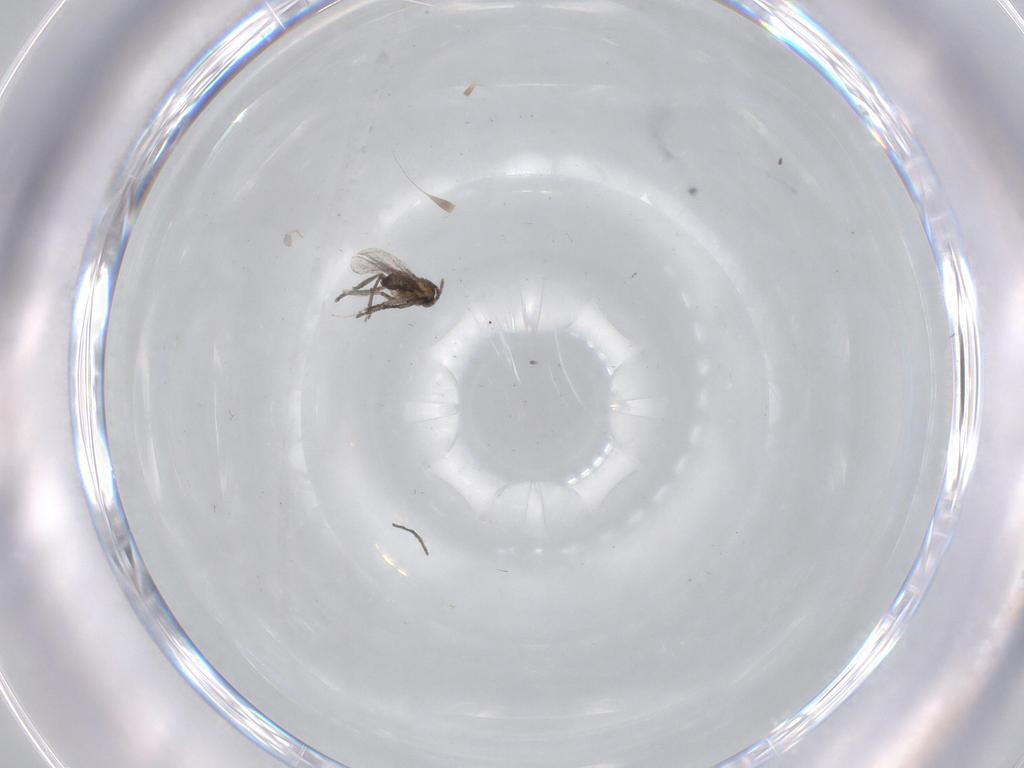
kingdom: Animalia
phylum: Arthropoda
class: Insecta
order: Diptera
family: Cecidomyiidae
